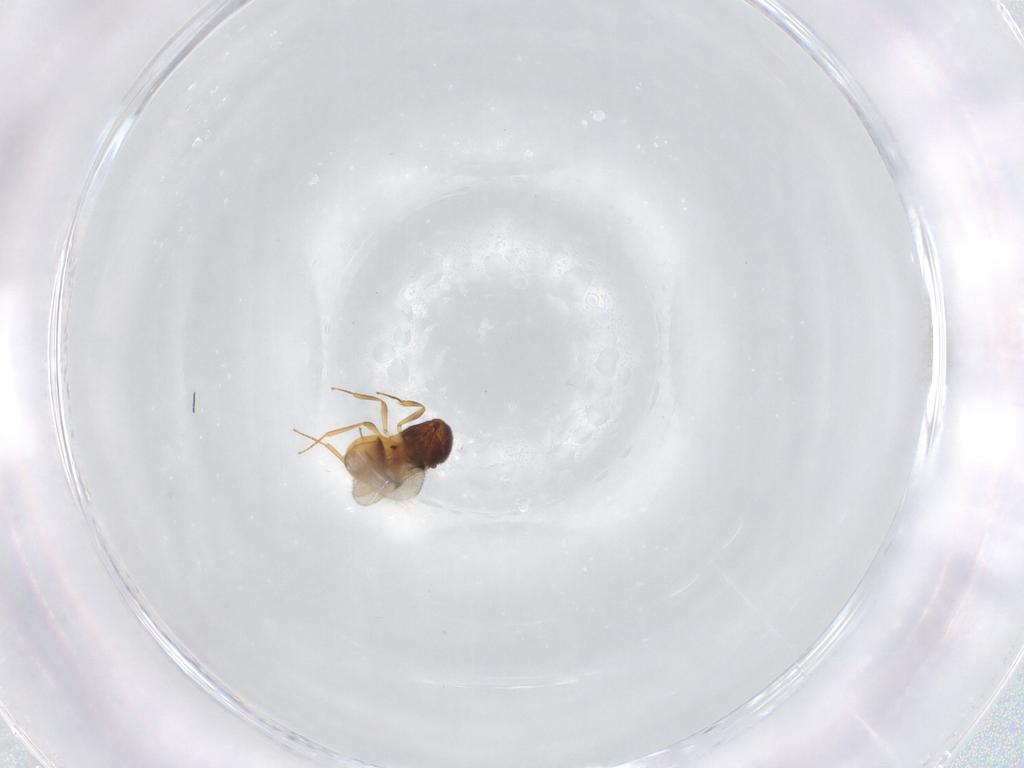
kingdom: Animalia
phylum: Arthropoda
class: Insecta
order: Hymenoptera
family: Scelionidae
